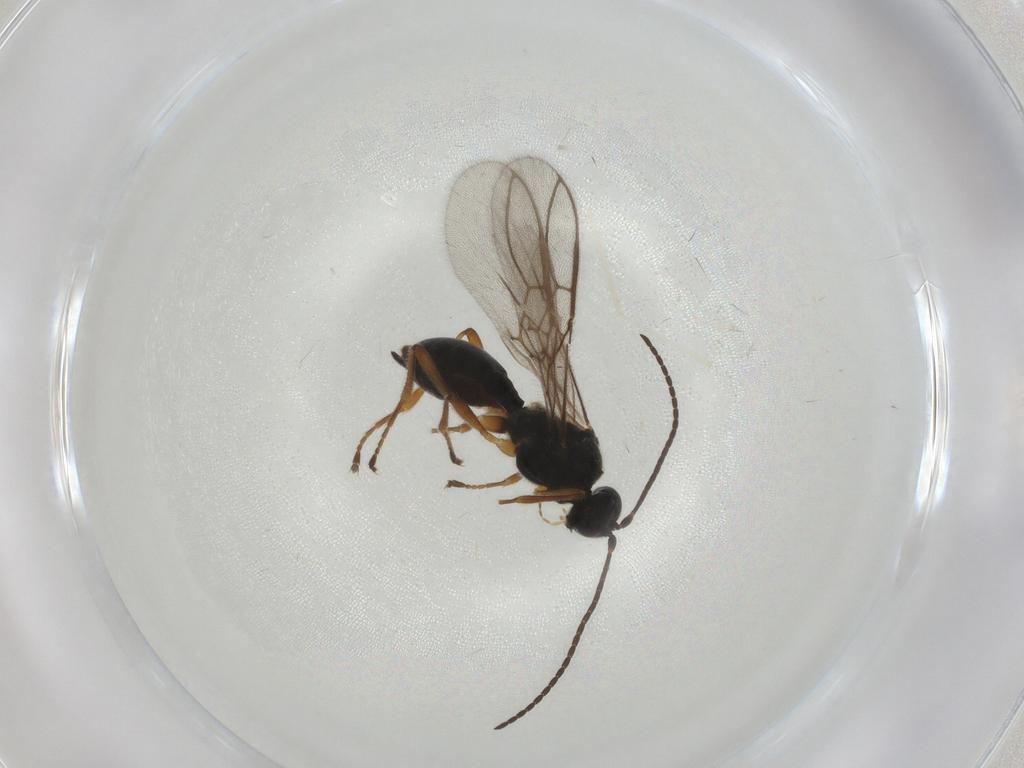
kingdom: Animalia
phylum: Arthropoda
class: Insecta
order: Hymenoptera
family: Braconidae
